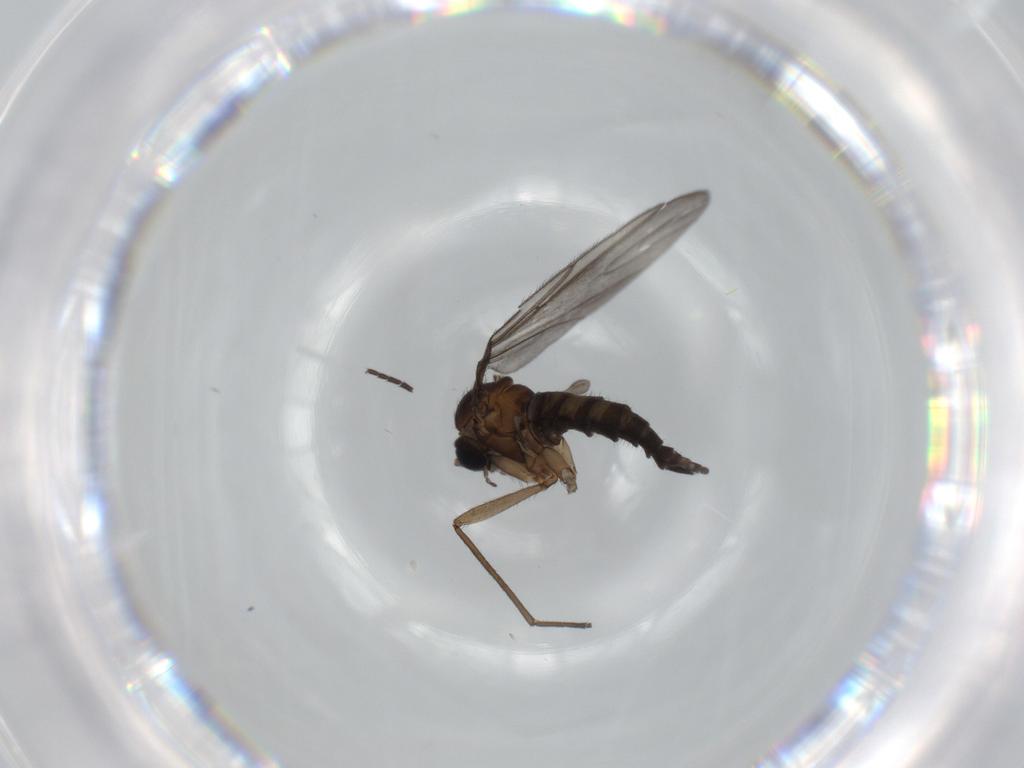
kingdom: Animalia
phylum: Arthropoda
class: Insecta
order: Diptera
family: Sciaridae
